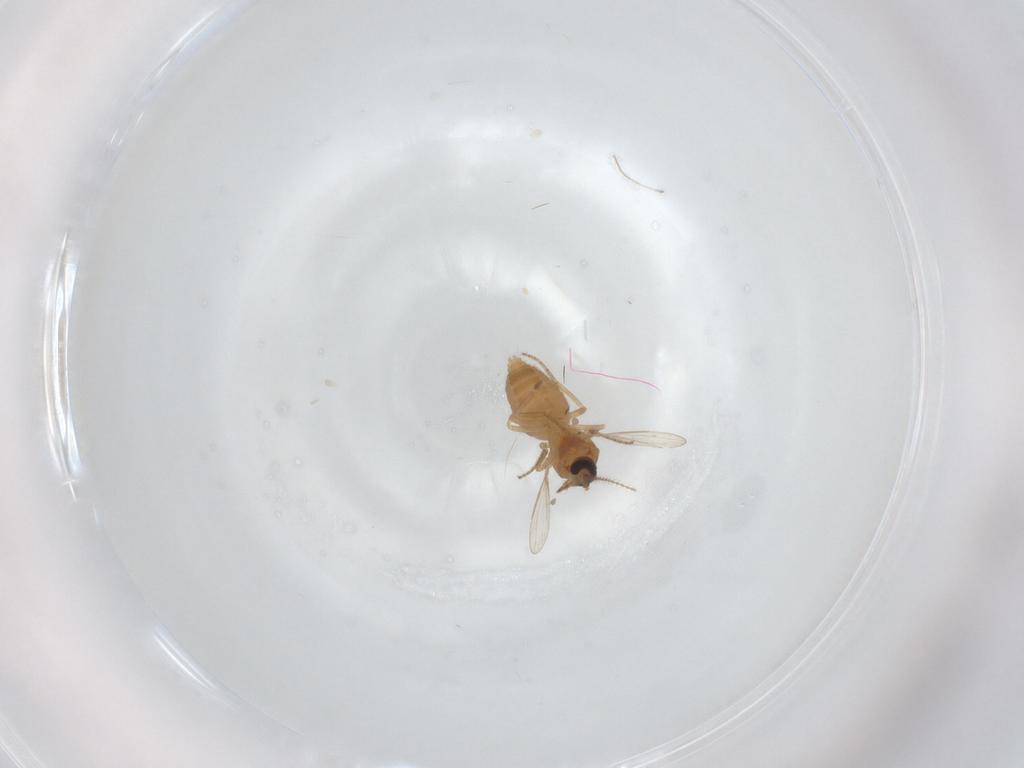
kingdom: Animalia
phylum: Arthropoda
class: Insecta
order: Diptera
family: Ceratopogonidae
